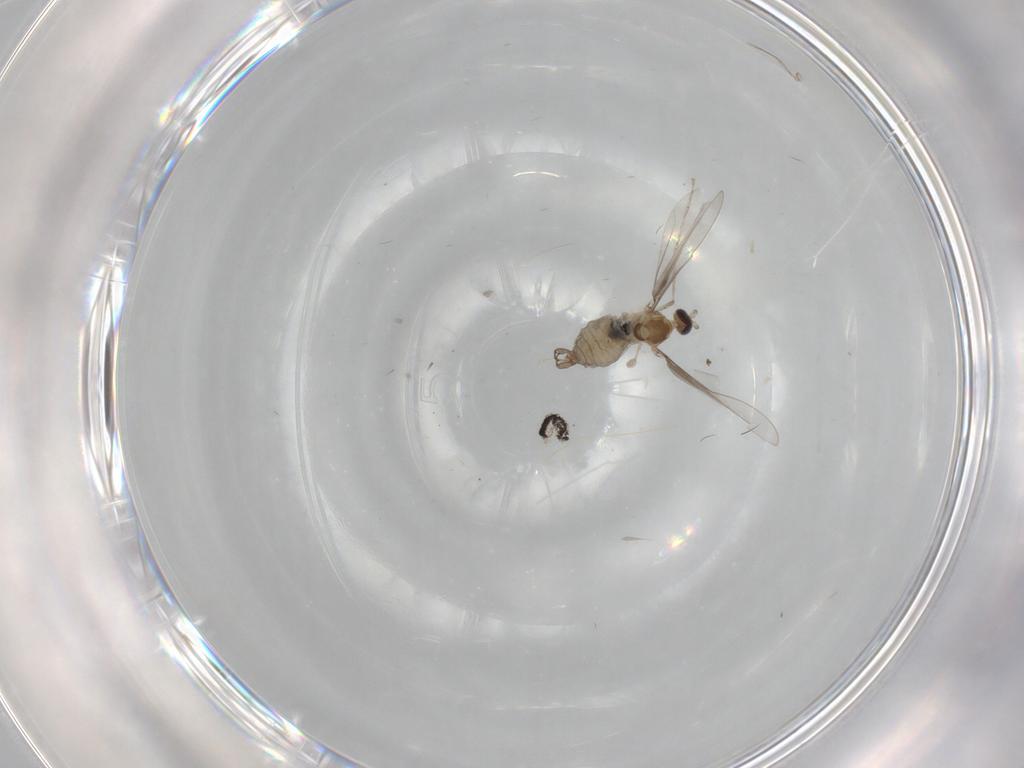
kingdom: Animalia
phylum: Arthropoda
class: Insecta
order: Diptera
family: Cecidomyiidae
